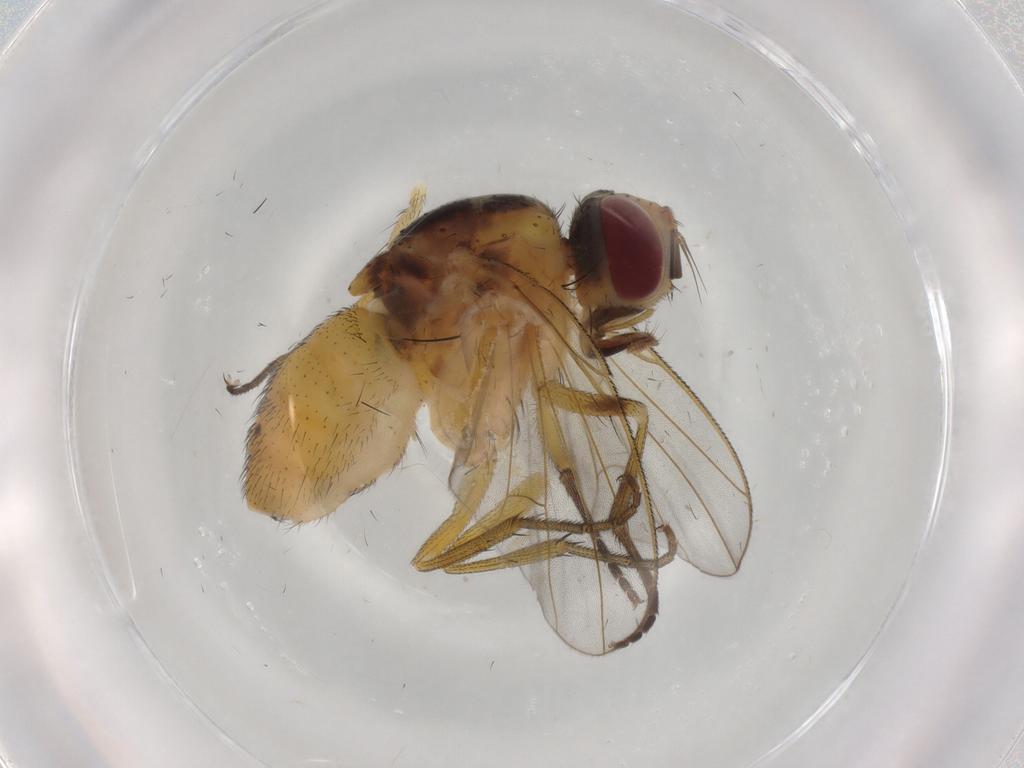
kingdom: Animalia
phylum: Arthropoda
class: Insecta
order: Diptera
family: Muscidae
